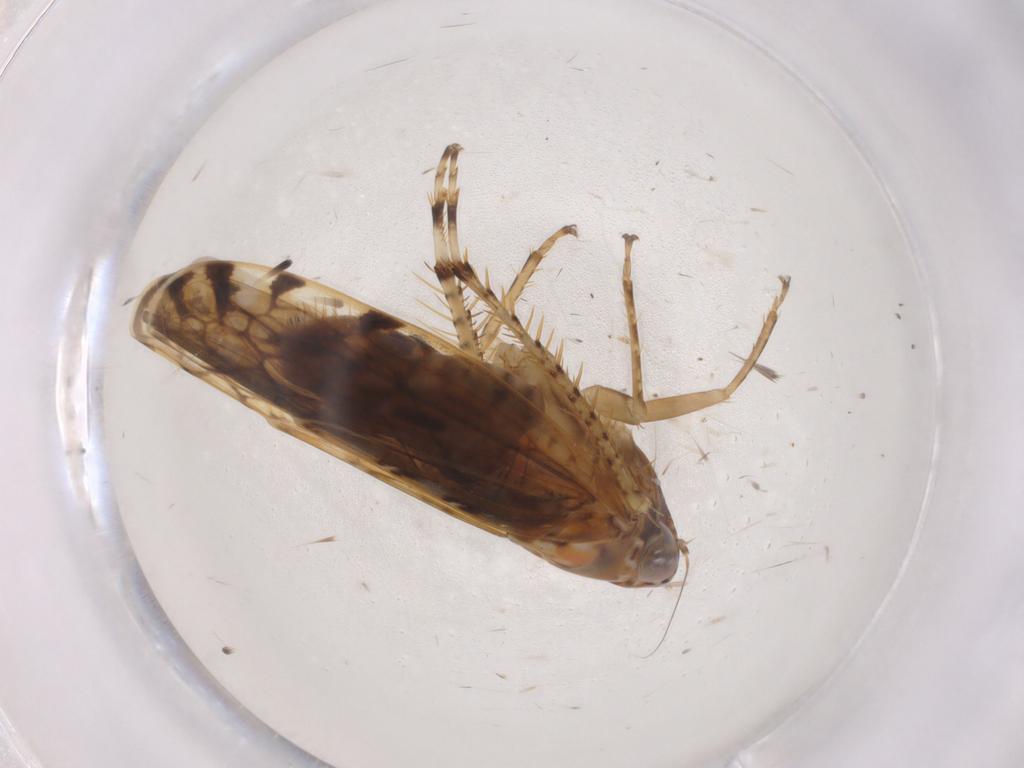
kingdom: Animalia
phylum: Arthropoda
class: Insecta
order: Hemiptera
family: Cicadellidae
